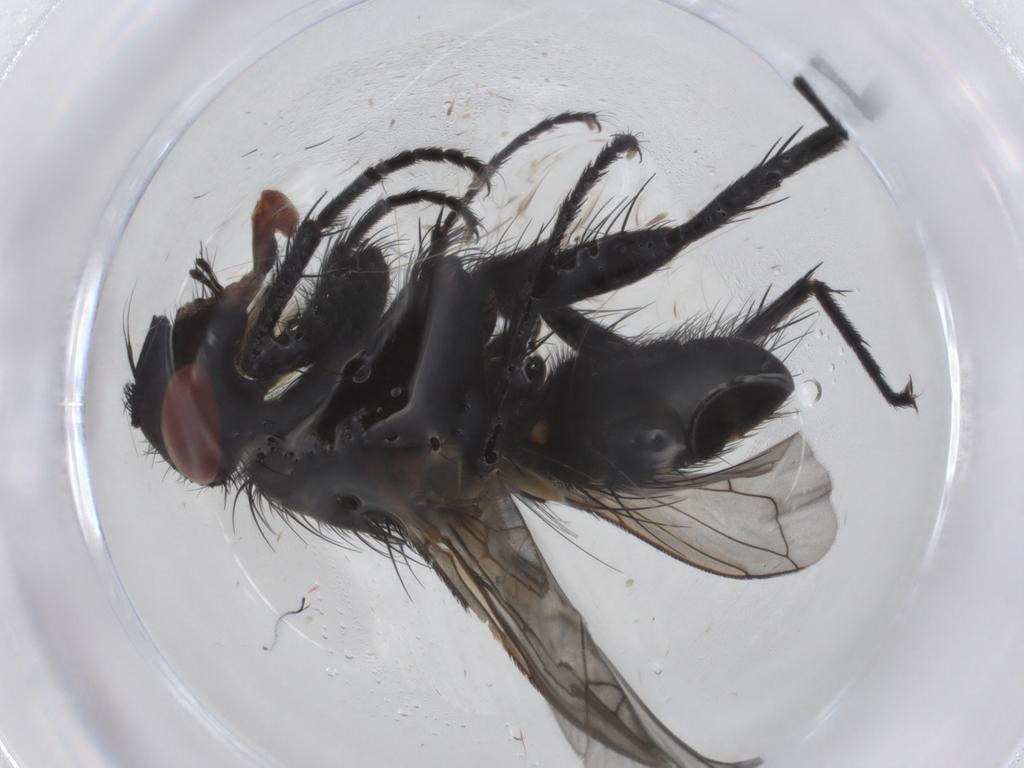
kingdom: Animalia
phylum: Arthropoda
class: Insecta
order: Diptera
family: Tachinidae
